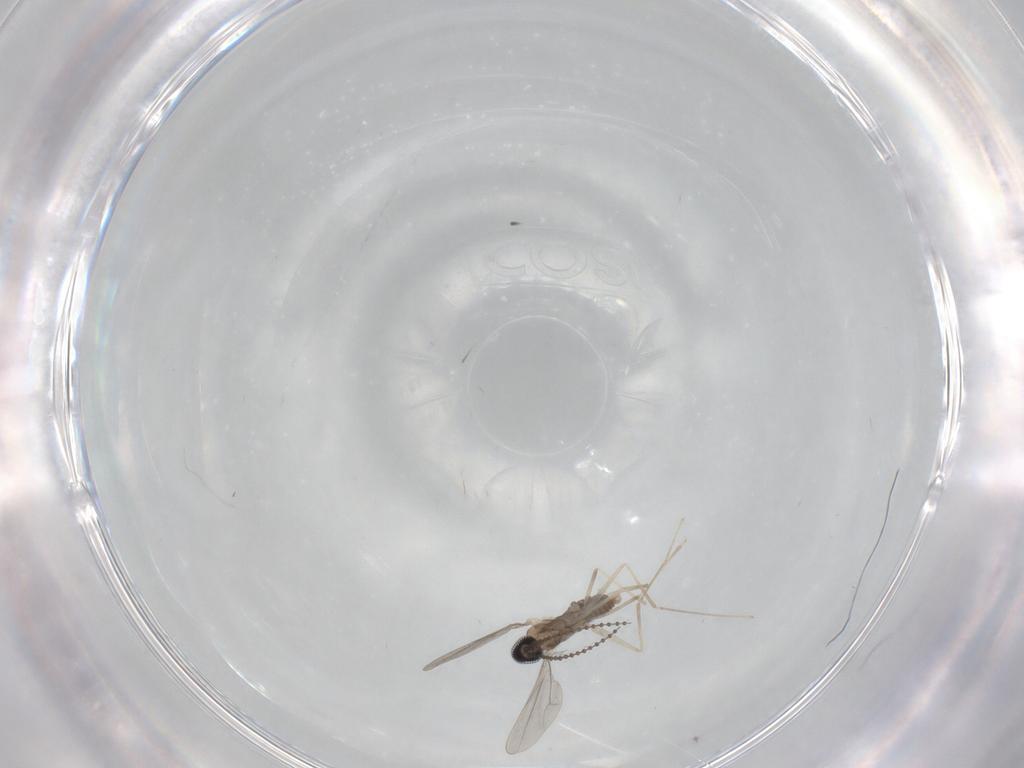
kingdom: Animalia
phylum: Arthropoda
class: Insecta
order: Diptera
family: Cecidomyiidae
